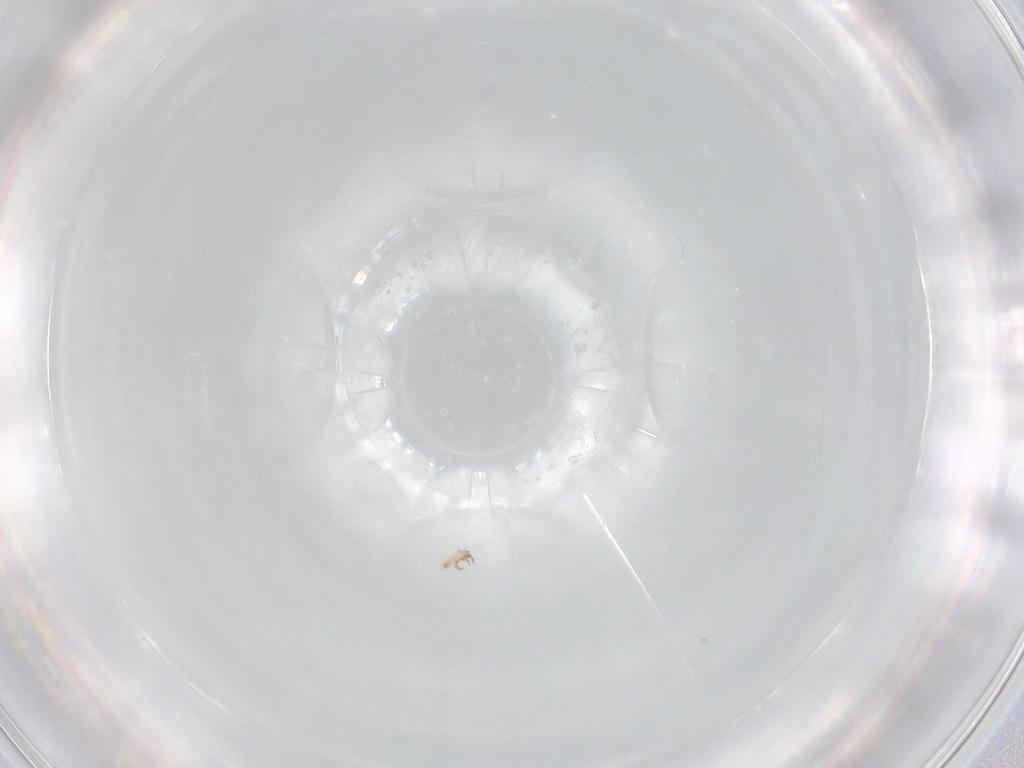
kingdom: Animalia
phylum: Arthropoda
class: Arachnida
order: Sarcoptiformes
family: Humerobatidae
